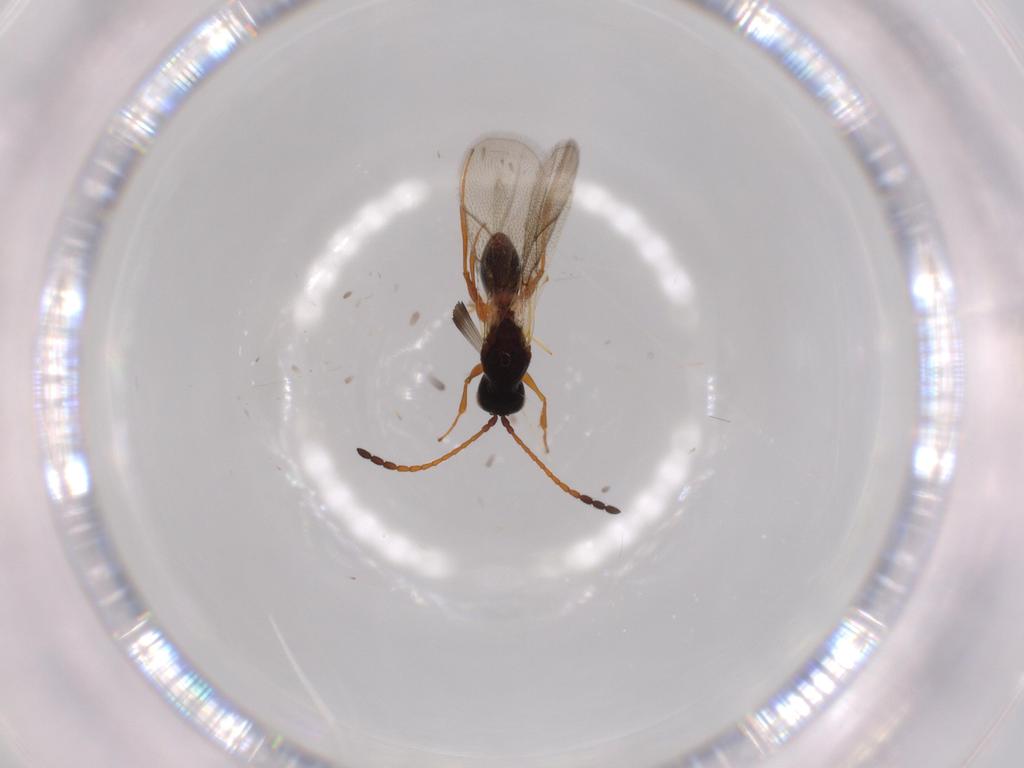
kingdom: Animalia
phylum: Arthropoda
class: Insecta
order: Hymenoptera
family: Figitidae
